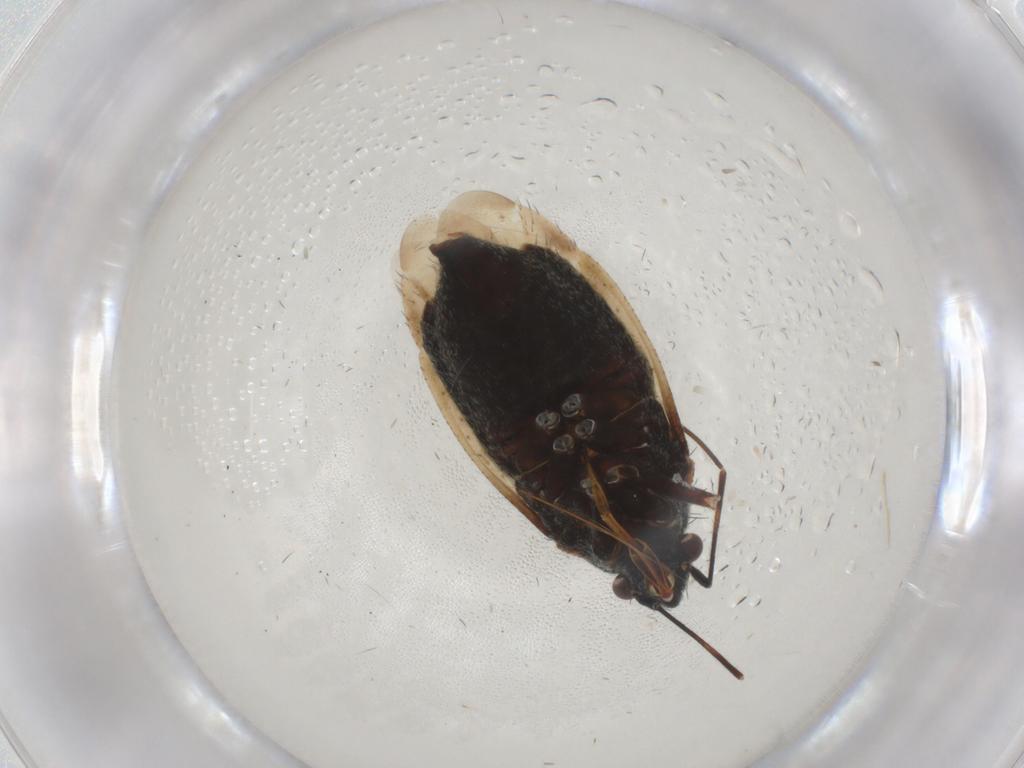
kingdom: Animalia
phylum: Arthropoda
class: Insecta
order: Hemiptera
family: Miridae
